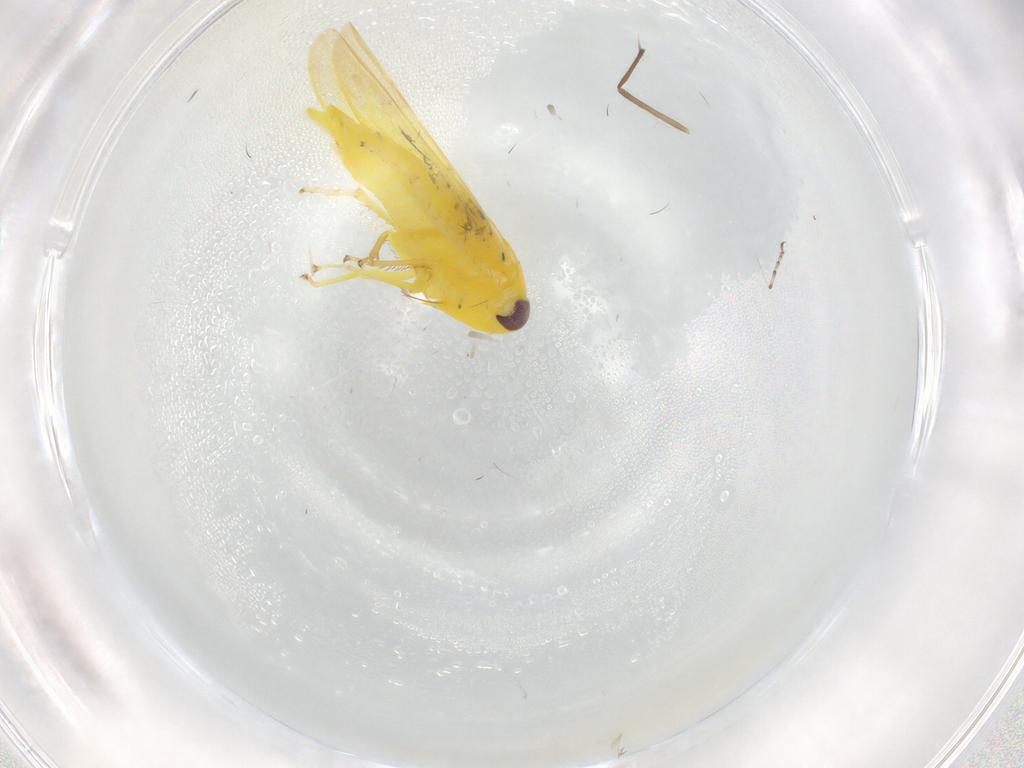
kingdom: Animalia
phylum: Arthropoda
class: Insecta
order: Hemiptera
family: Cicadellidae
